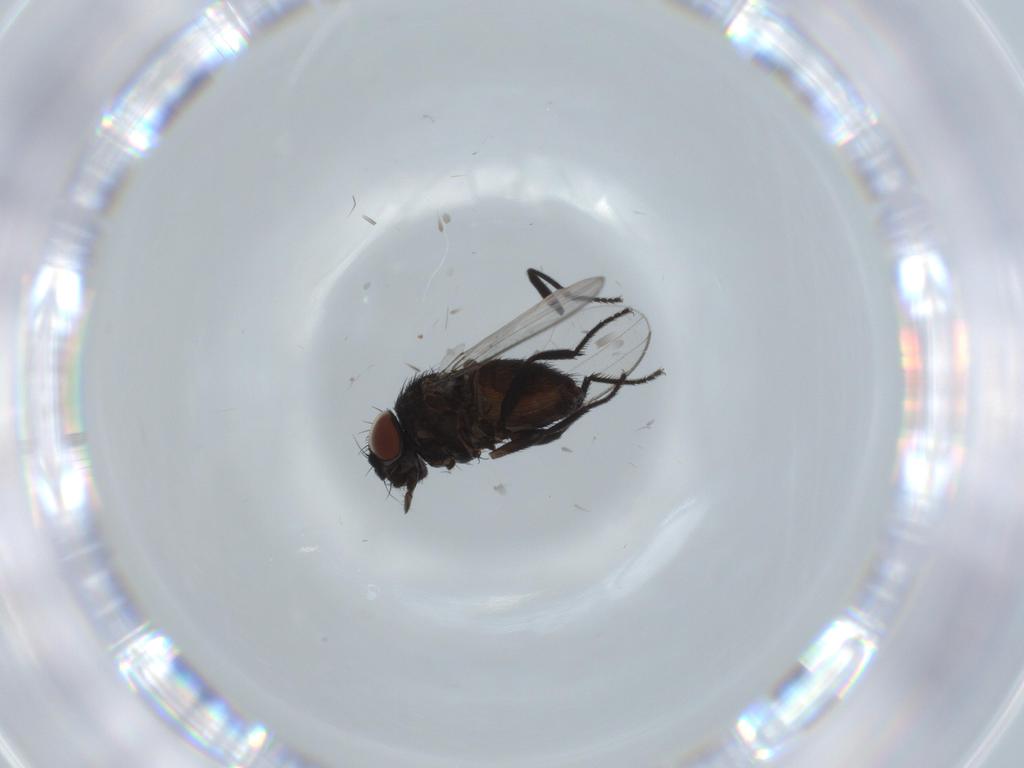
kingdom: Animalia
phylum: Arthropoda
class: Insecta
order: Diptera
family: Milichiidae
